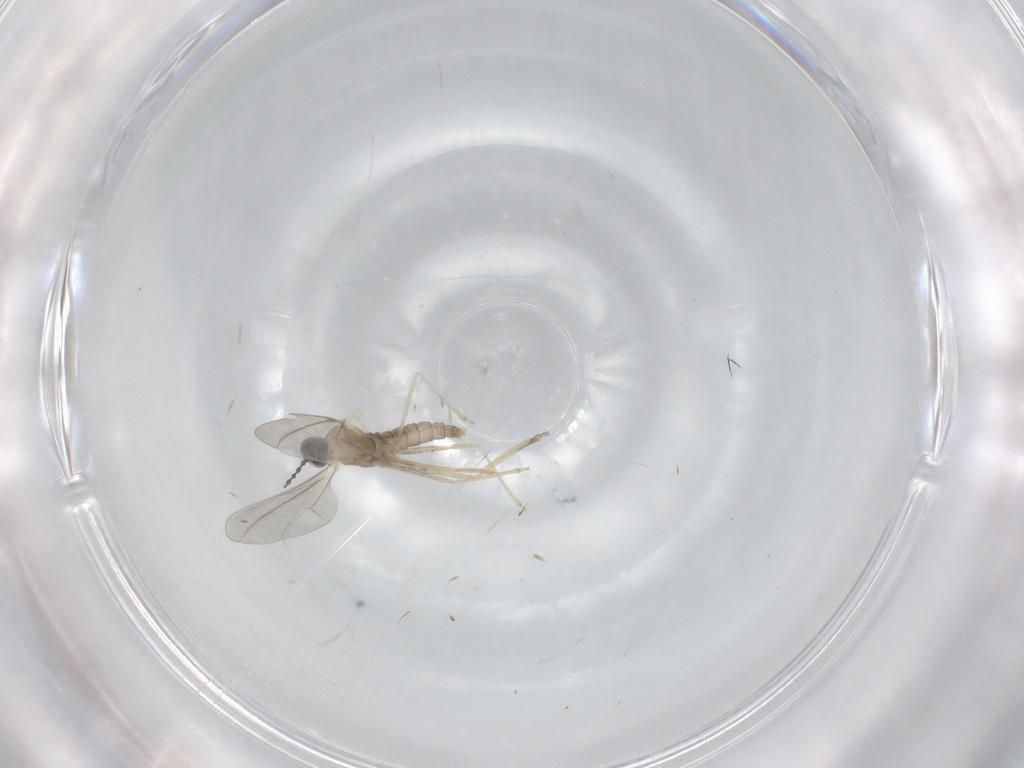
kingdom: Animalia
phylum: Arthropoda
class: Insecta
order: Diptera
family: Cecidomyiidae
